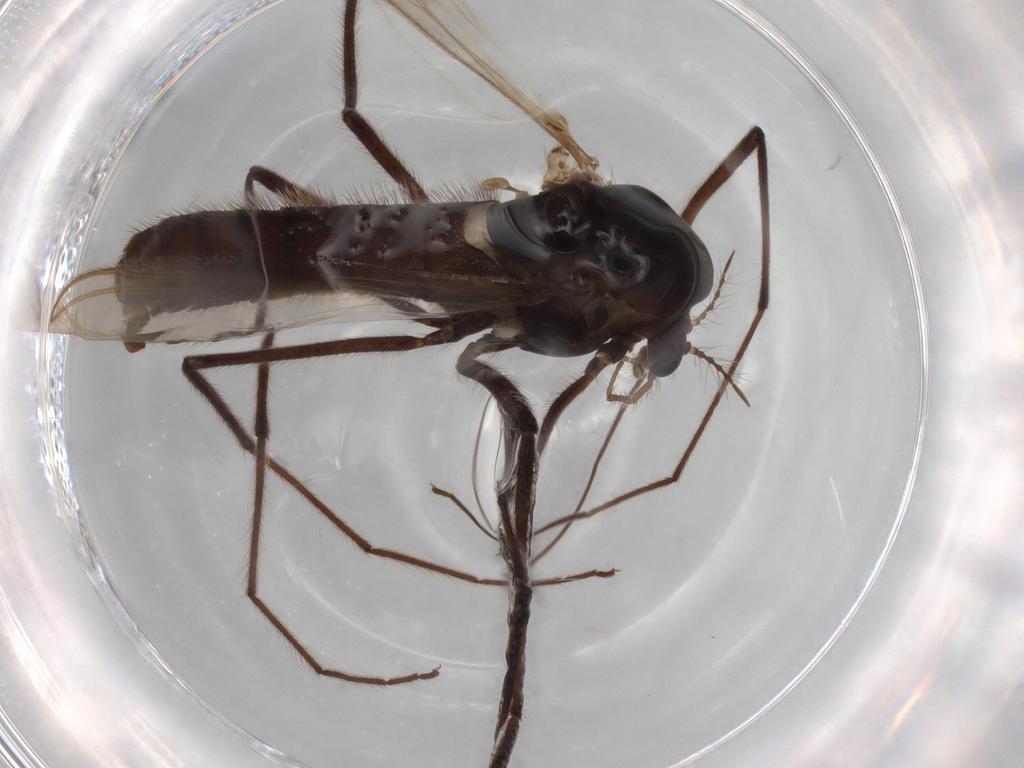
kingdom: Animalia
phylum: Arthropoda
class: Insecta
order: Diptera
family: Chironomidae
